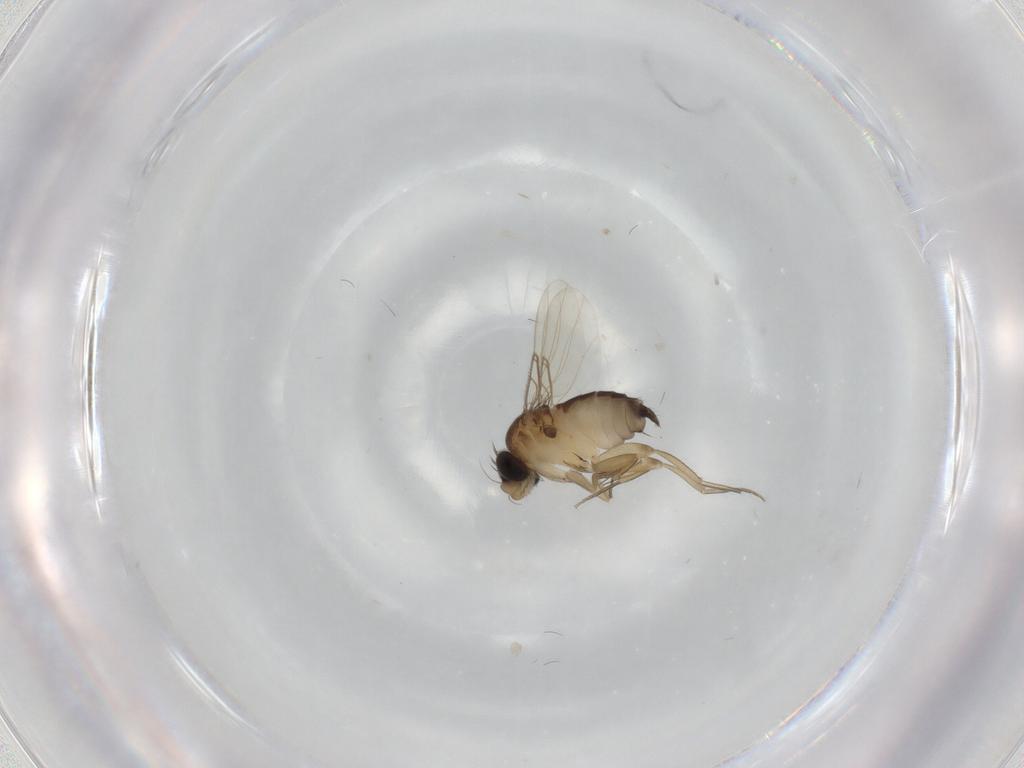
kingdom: Animalia
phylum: Arthropoda
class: Insecta
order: Diptera
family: Phoridae
